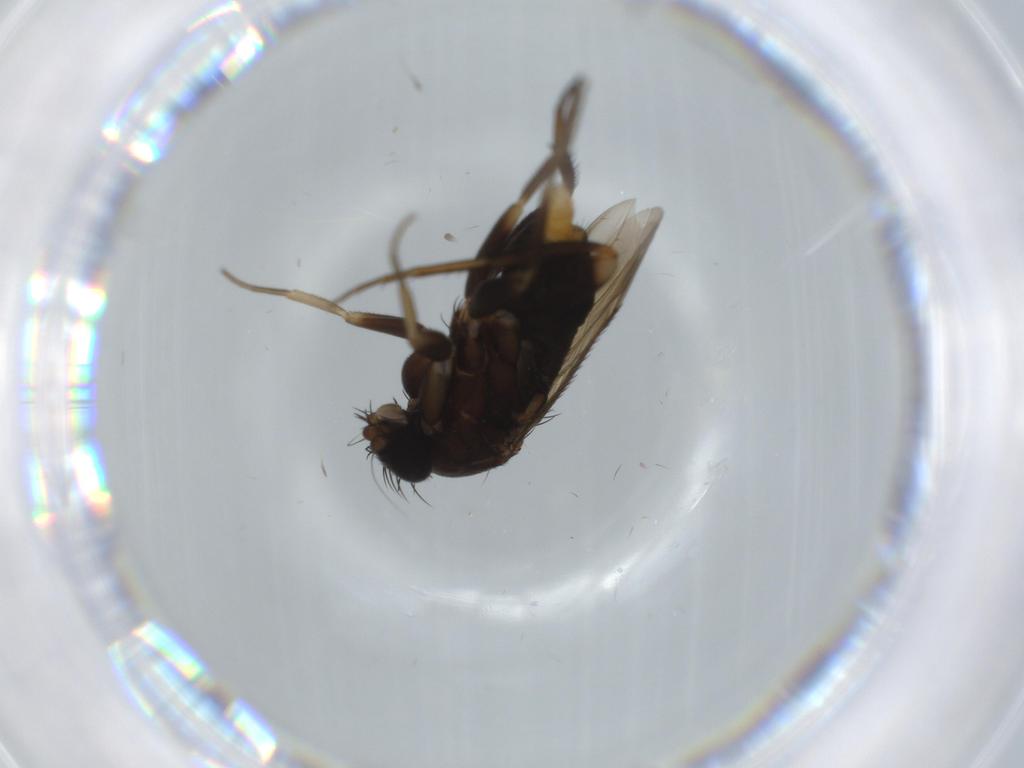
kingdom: Animalia
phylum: Arthropoda
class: Insecta
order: Diptera
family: Phoridae
